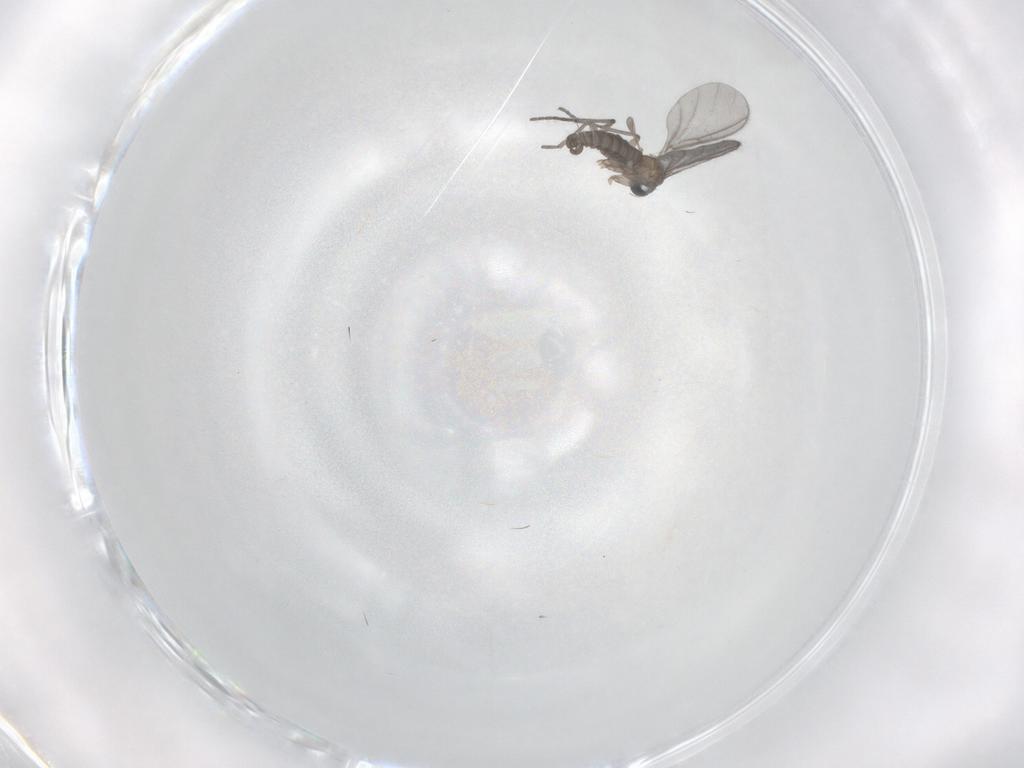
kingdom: Animalia
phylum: Arthropoda
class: Insecta
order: Diptera
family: Sciaridae
